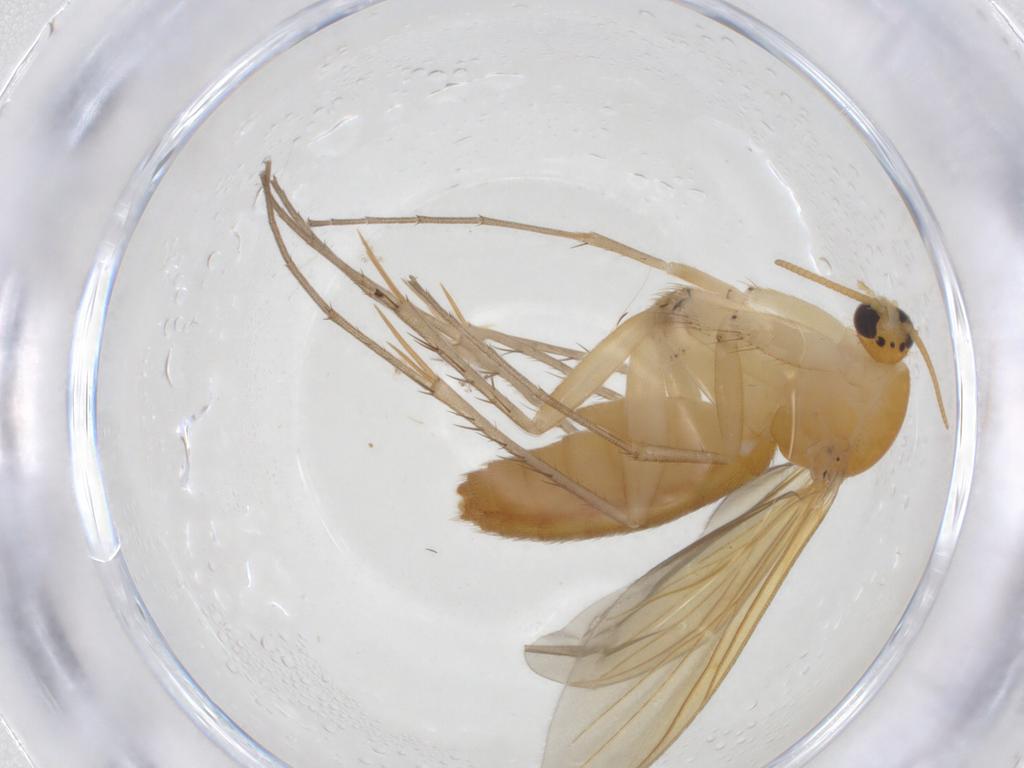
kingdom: Animalia
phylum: Arthropoda
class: Insecta
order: Diptera
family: Mycetophilidae
